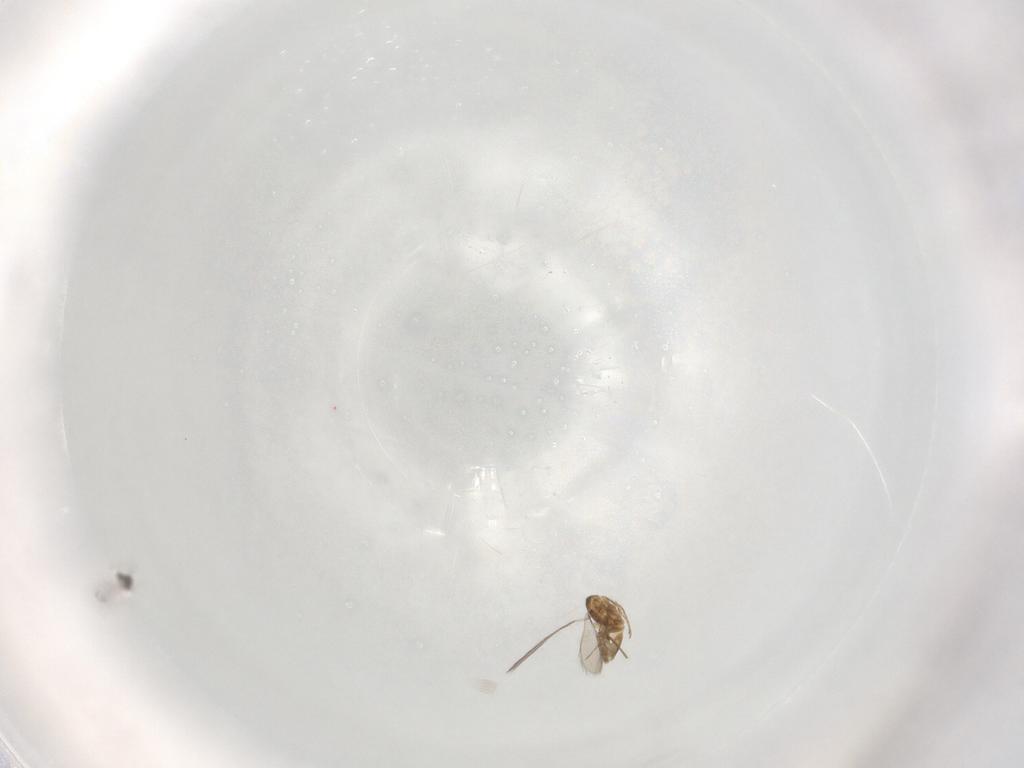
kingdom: Animalia
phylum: Arthropoda
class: Insecta
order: Hymenoptera
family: Mymaridae
